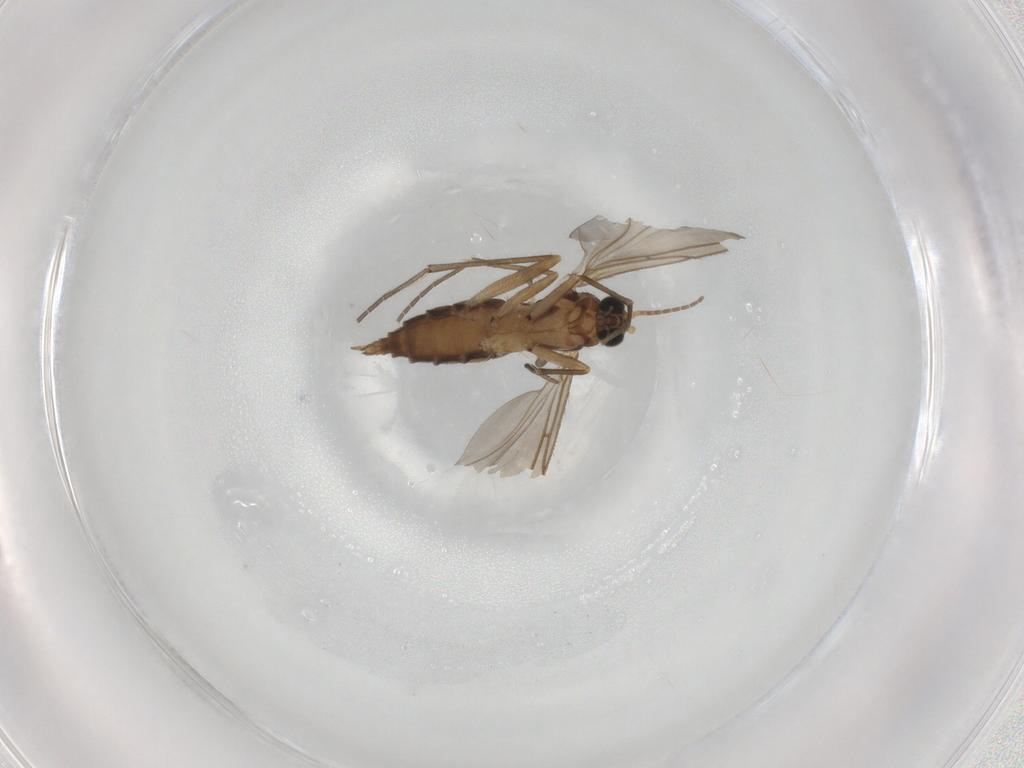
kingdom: Animalia
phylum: Arthropoda
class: Insecta
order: Diptera
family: Sciaridae
